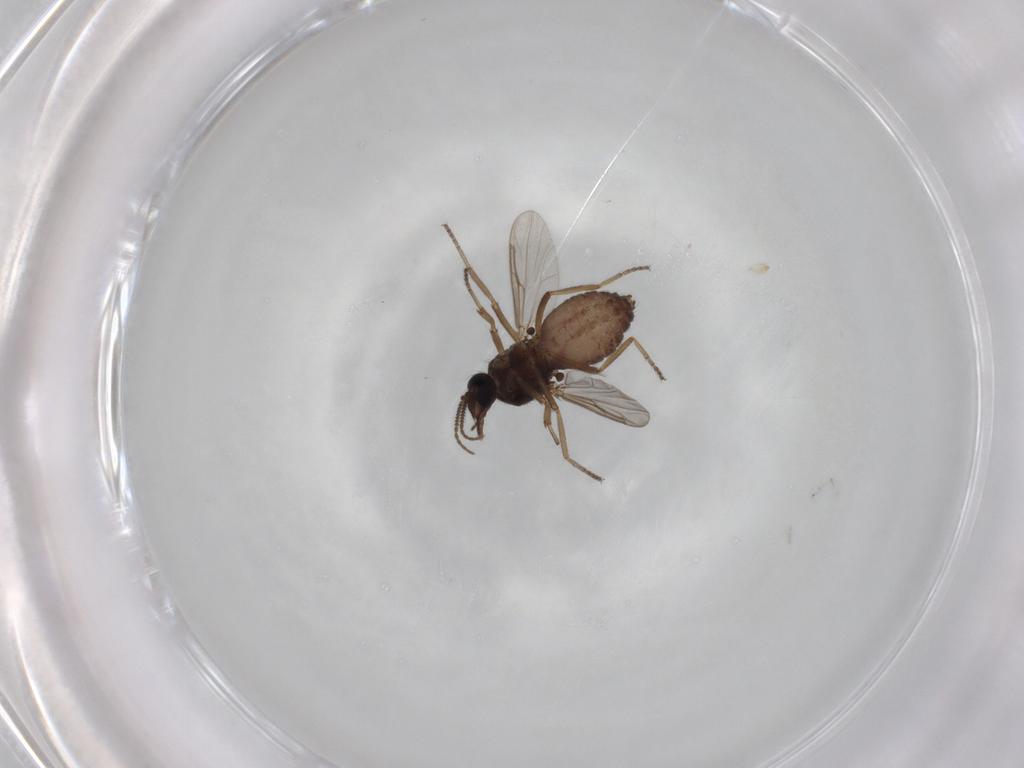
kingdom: Animalia
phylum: Arthropoda
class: Insecta
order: Diptera
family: Ceratopogonidae
